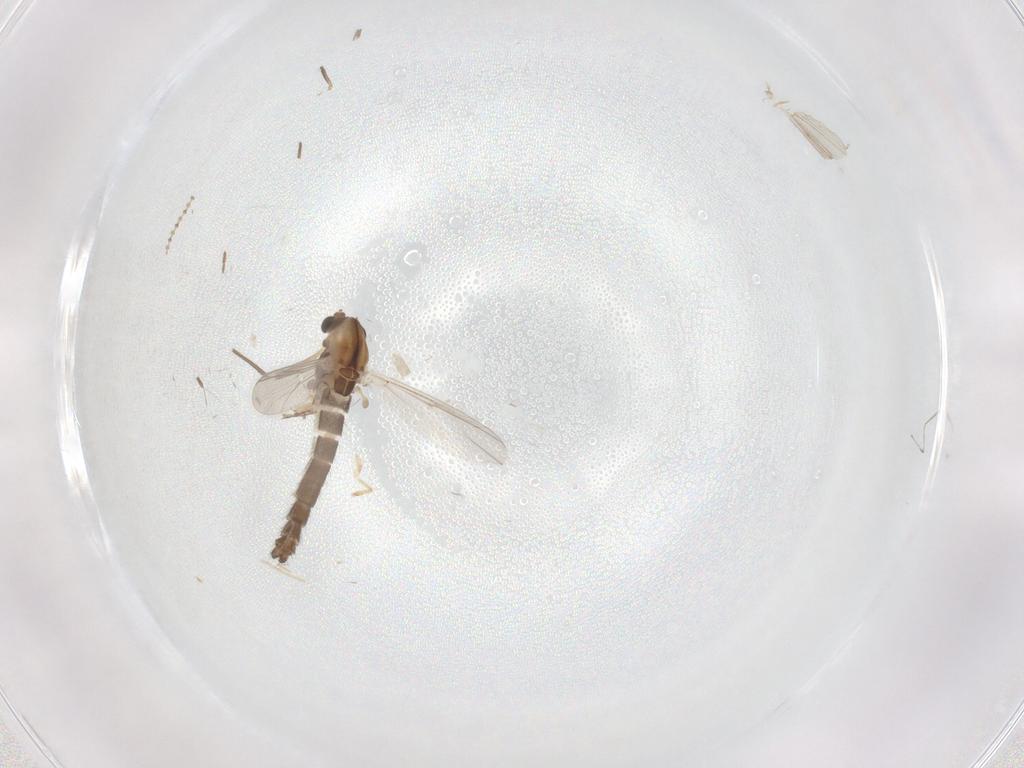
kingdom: Animalia
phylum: Arthropoda
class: Insecta
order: Diptera
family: Chironomidae
